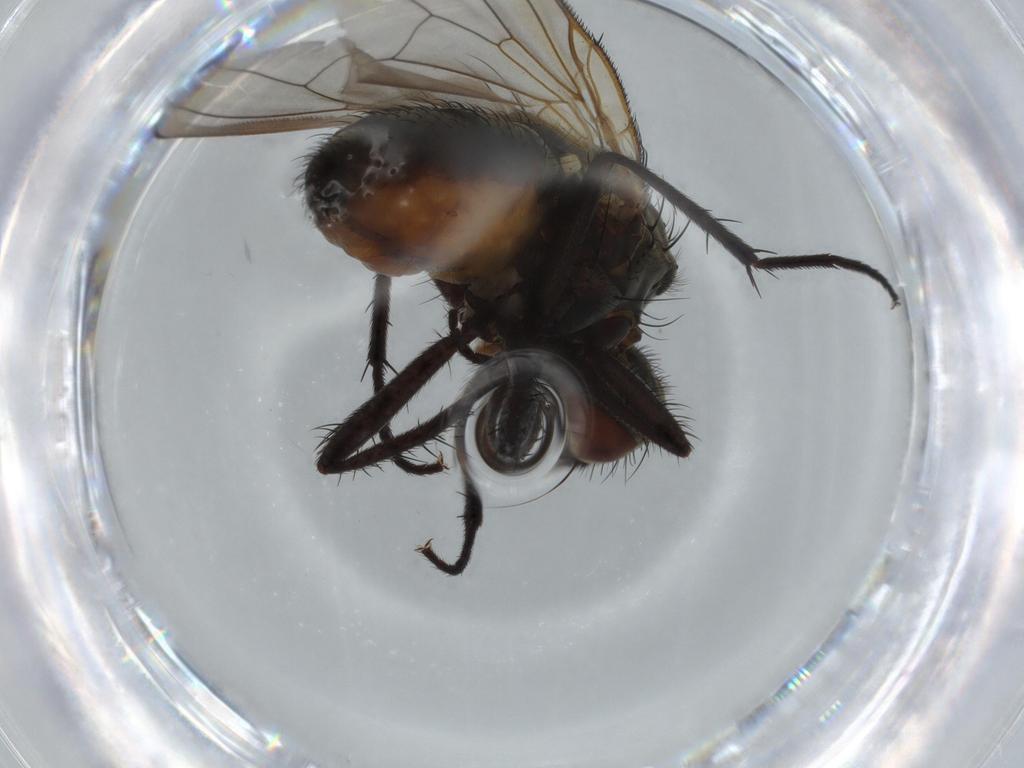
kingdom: Animalia
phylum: Arthropoda
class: Insecta
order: Diptera
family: Anthomyiidae
